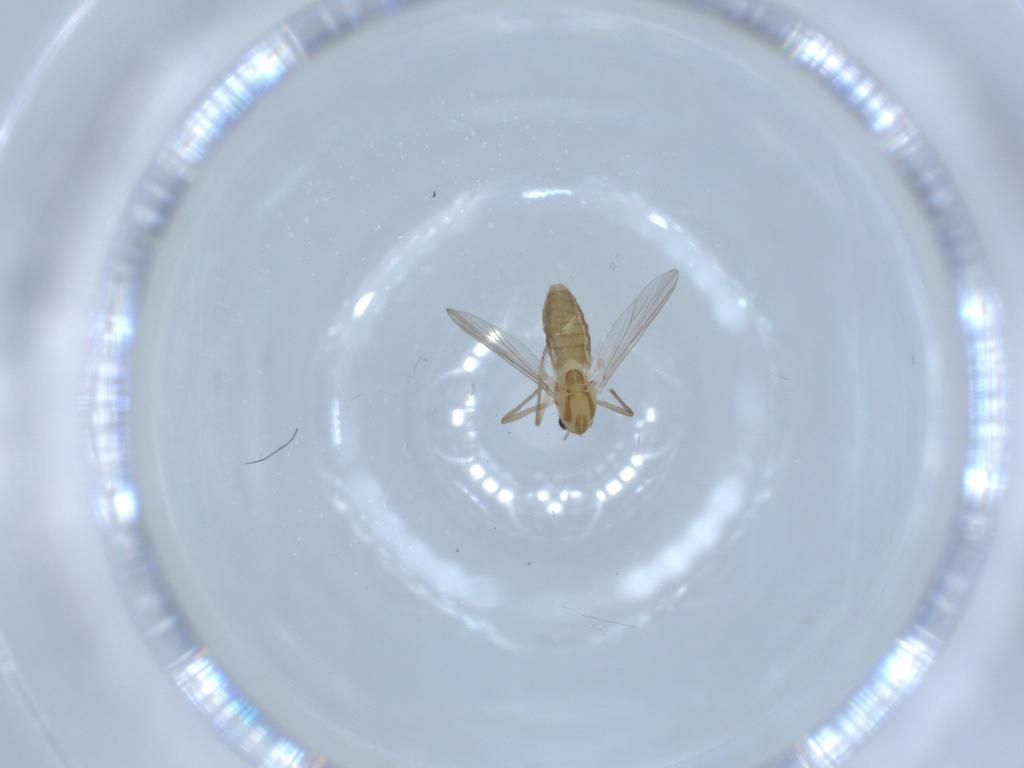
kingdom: Animalia
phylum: Arthropoda
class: Insecta
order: Diptera
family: Chironomidae
